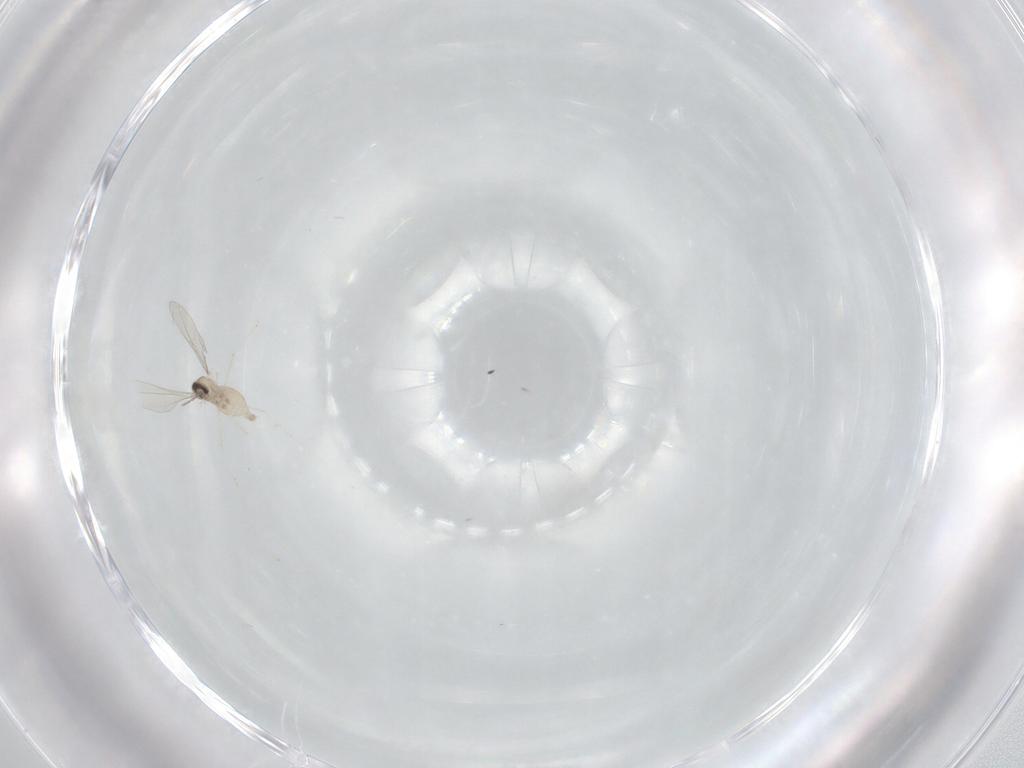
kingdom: Animalia
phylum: Arthropoda
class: Insecta
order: Diptera
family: Cecidomyiidae
